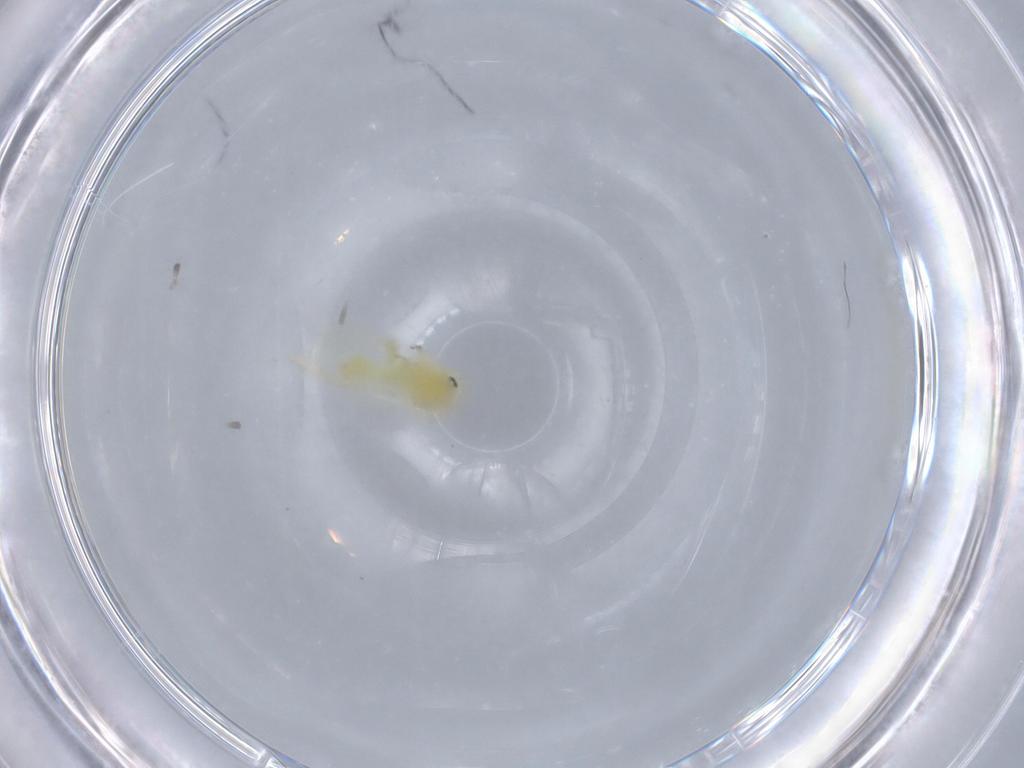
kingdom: Animalia
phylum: Arthropoda
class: Insecta
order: Hemiptera
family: Aleyrodidae
